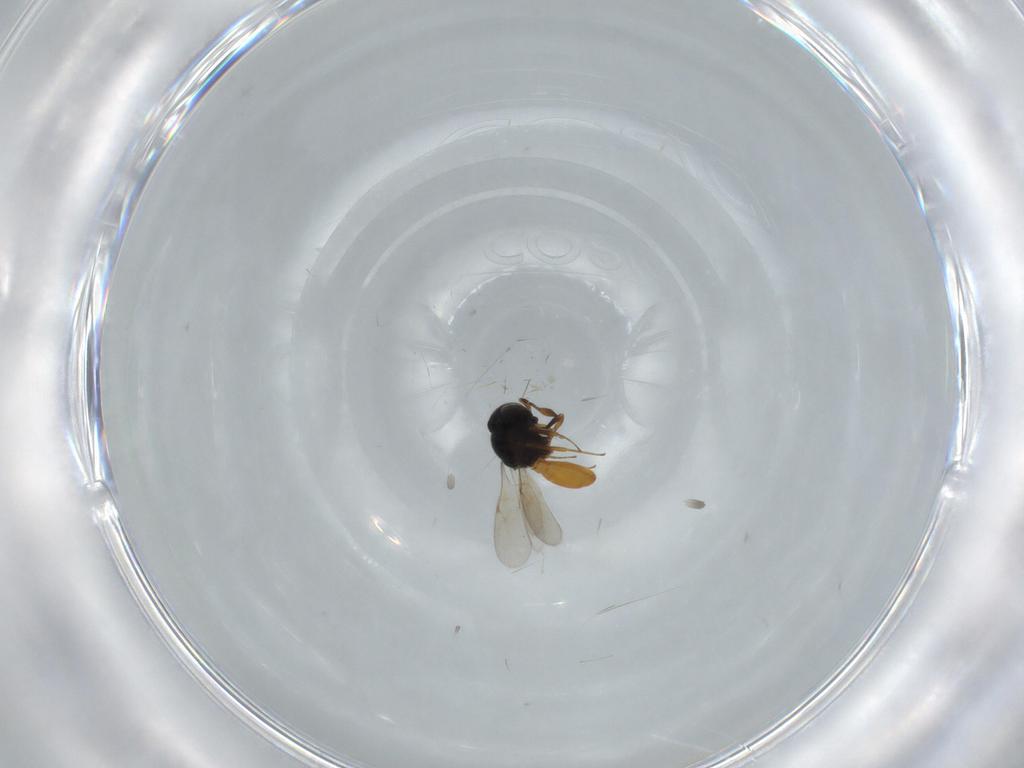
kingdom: Animalia
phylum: Arthropoda
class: Insecta
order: Hymenoptera
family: Scelionidae
